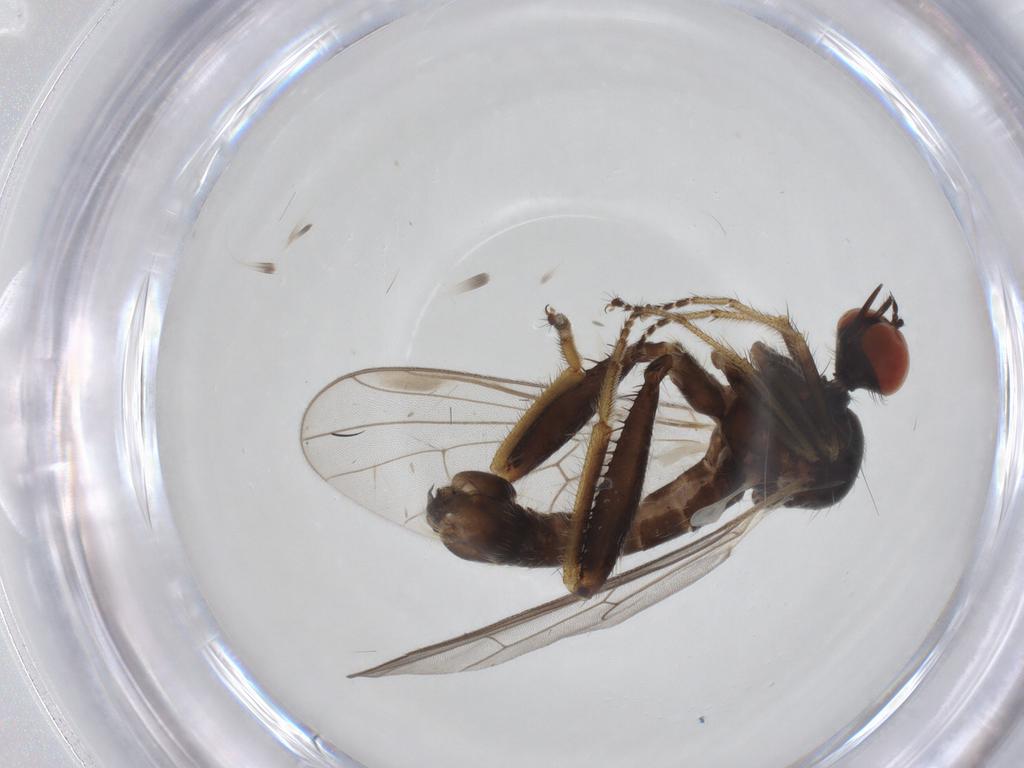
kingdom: Animalia
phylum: Arthropoda
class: Insecta
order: Diptera
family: Hybotidae
